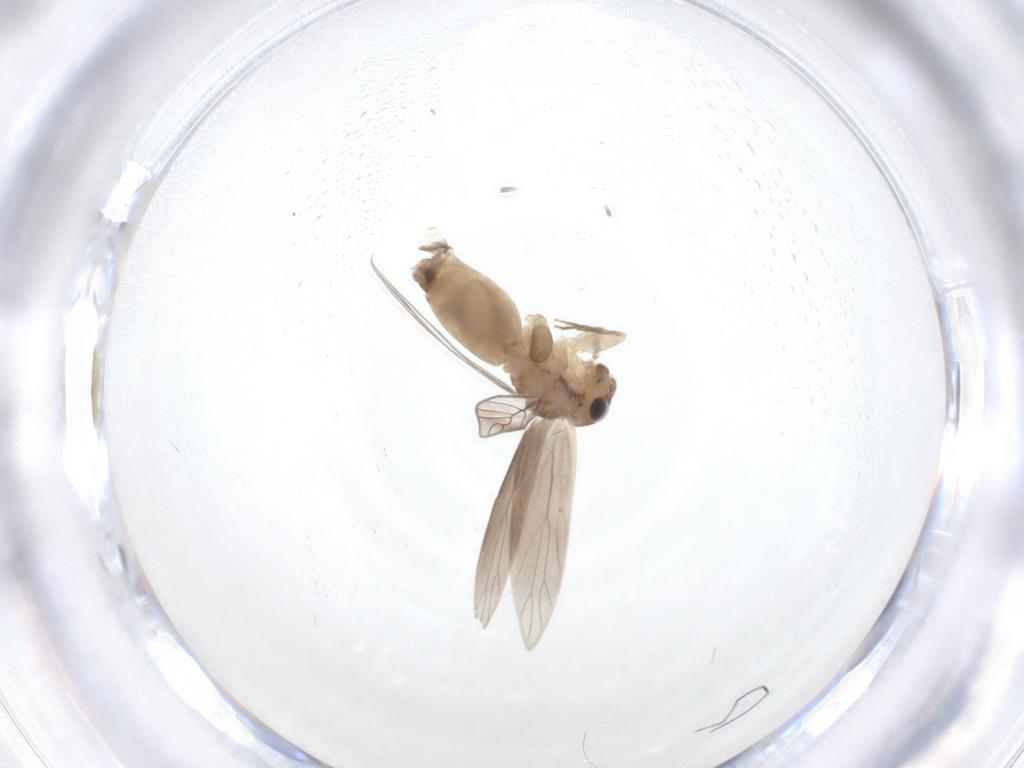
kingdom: Animalia
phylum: Arthropoda
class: Insecta
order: Psocodea
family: Lepidopsocidae
